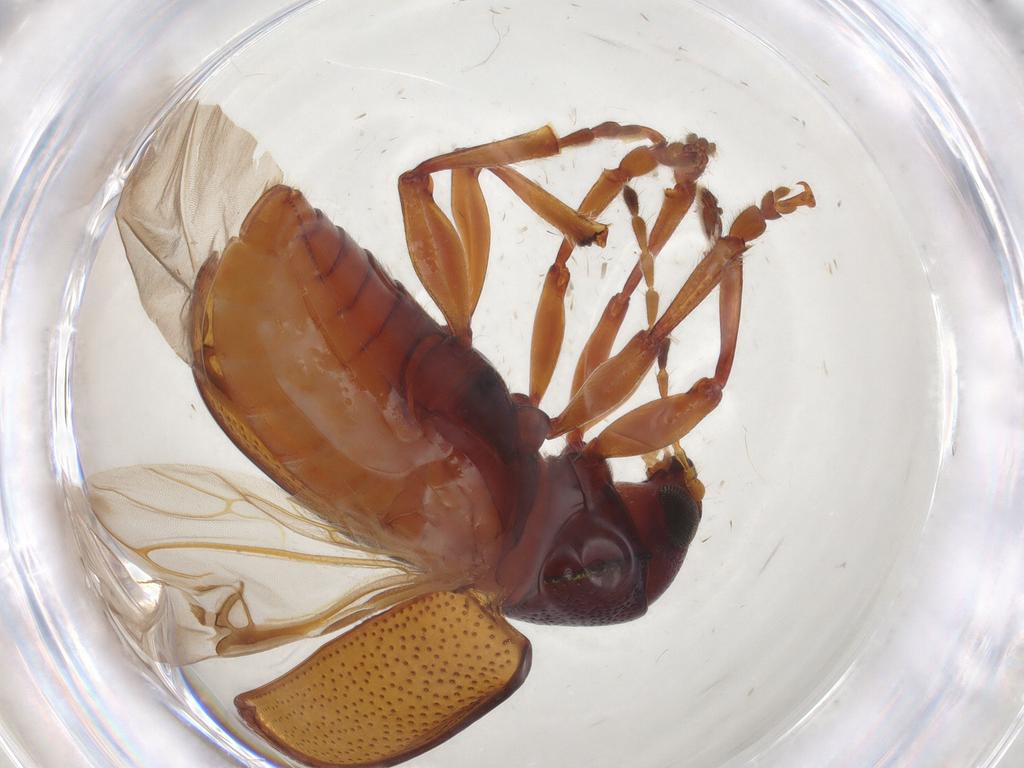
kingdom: Animalia
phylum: Arthropoda
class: Insecta
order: Coleoptera
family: Chrysomelidae
